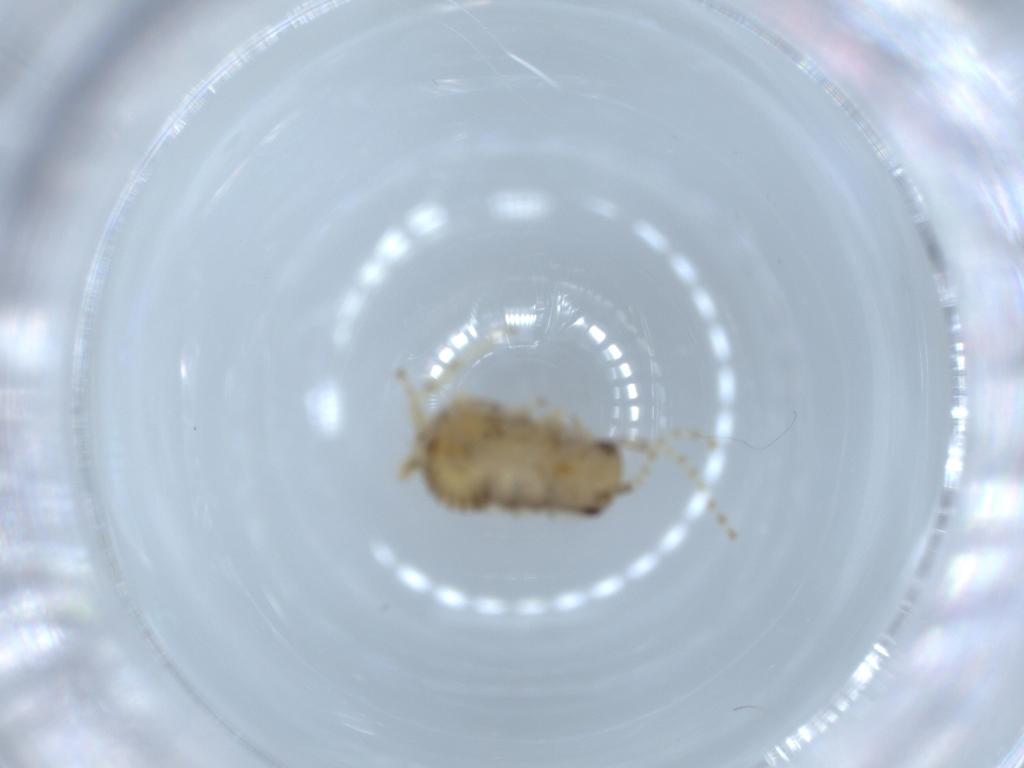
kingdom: Animalia
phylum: Arthropoda
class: Insecta
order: Blattodea
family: Ectobiidae
